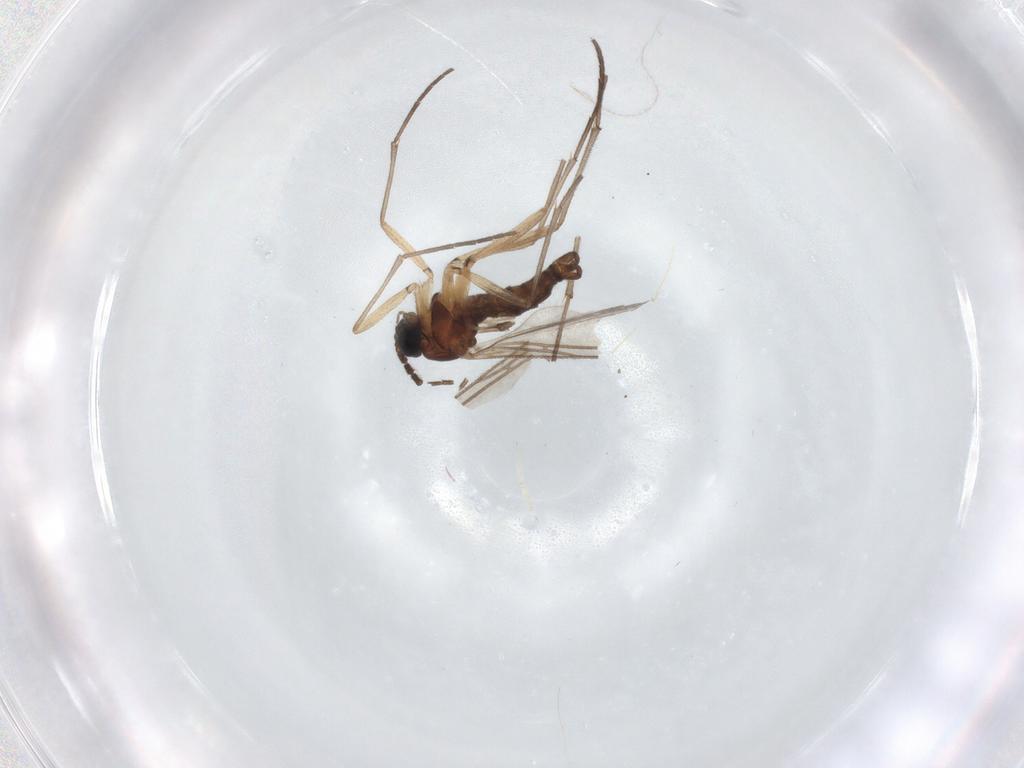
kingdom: Animalia
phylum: Arthropoda
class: Insecta
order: Diptera
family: Sciaridae
